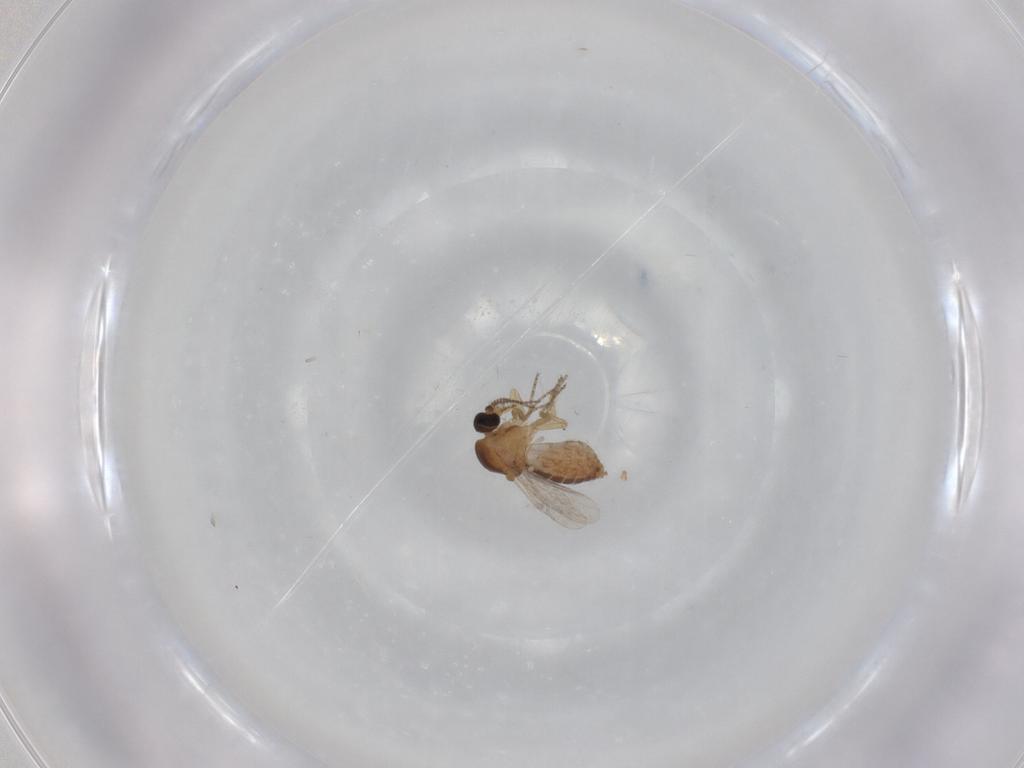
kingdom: Animalia
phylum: Arthropoda
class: Insecta
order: Diptera
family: Chironomidae
